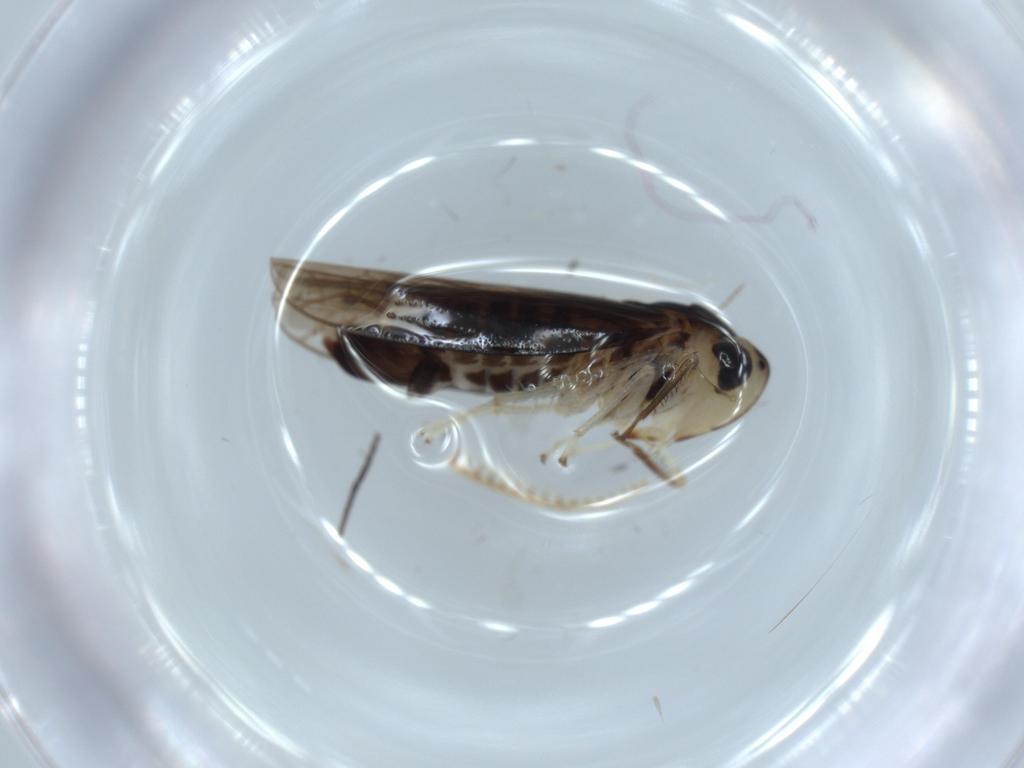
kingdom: Animalia
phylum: Arthropoda
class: Insecta
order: Hemiptera
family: Cicadellidae
